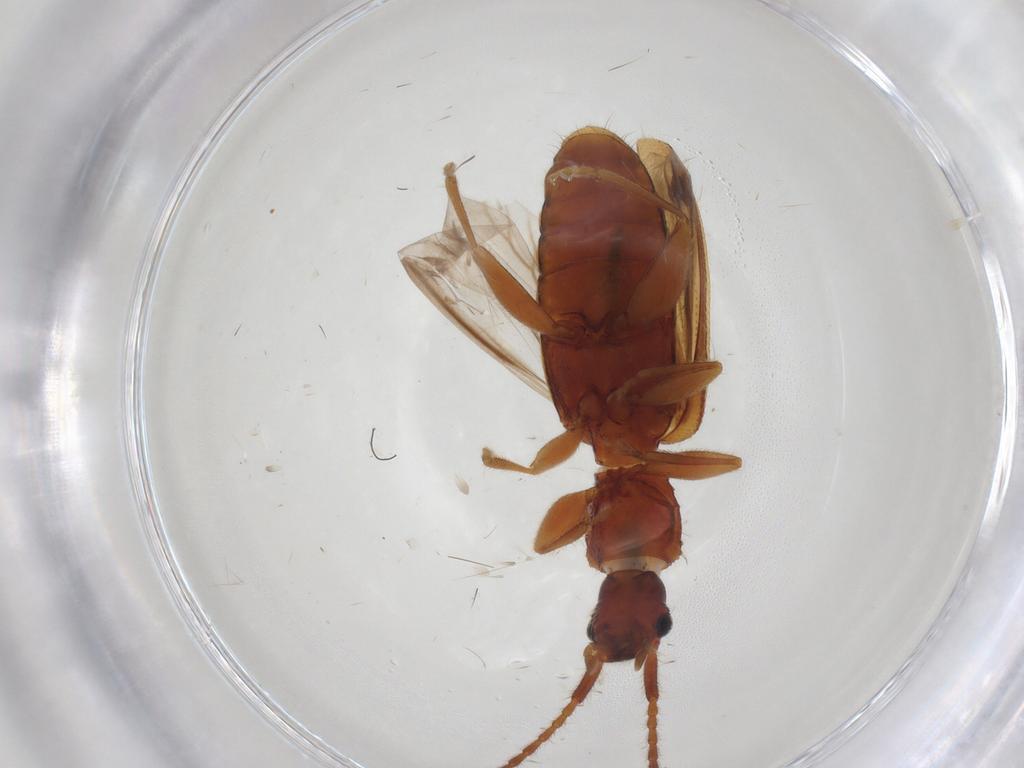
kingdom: Animalia
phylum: Arthropoda
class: Insecta
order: Coleoptera
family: Silvanidae
